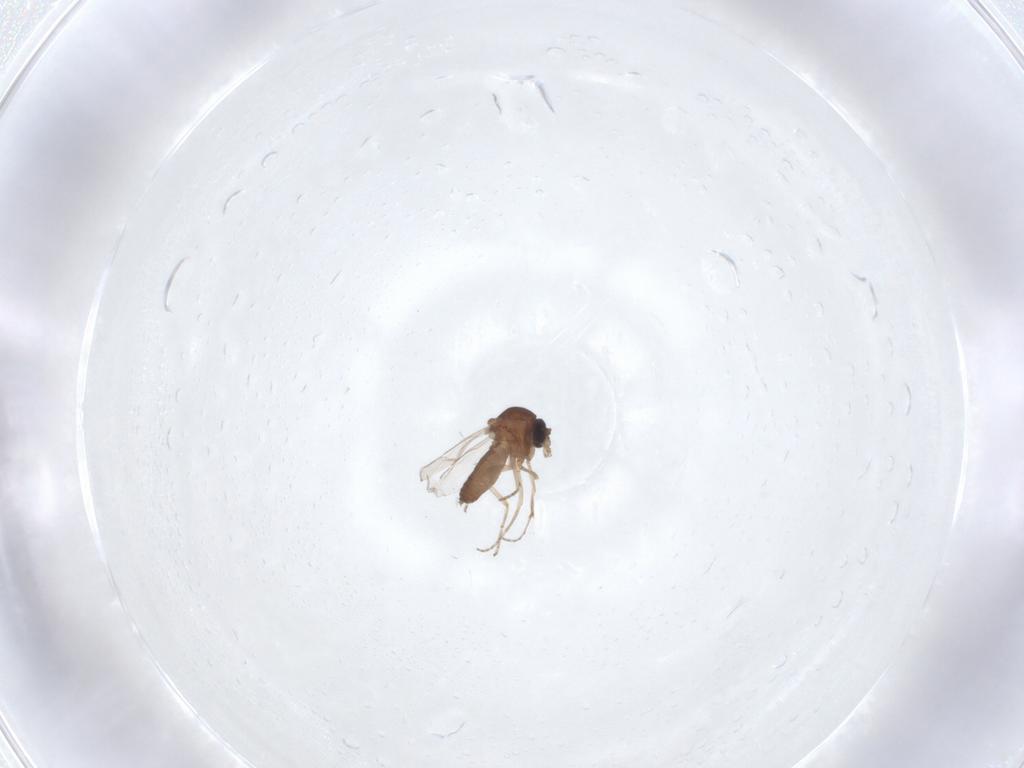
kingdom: Animalia
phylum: Arthropoda
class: Insecta
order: Diptera
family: Ceratopogonidae
